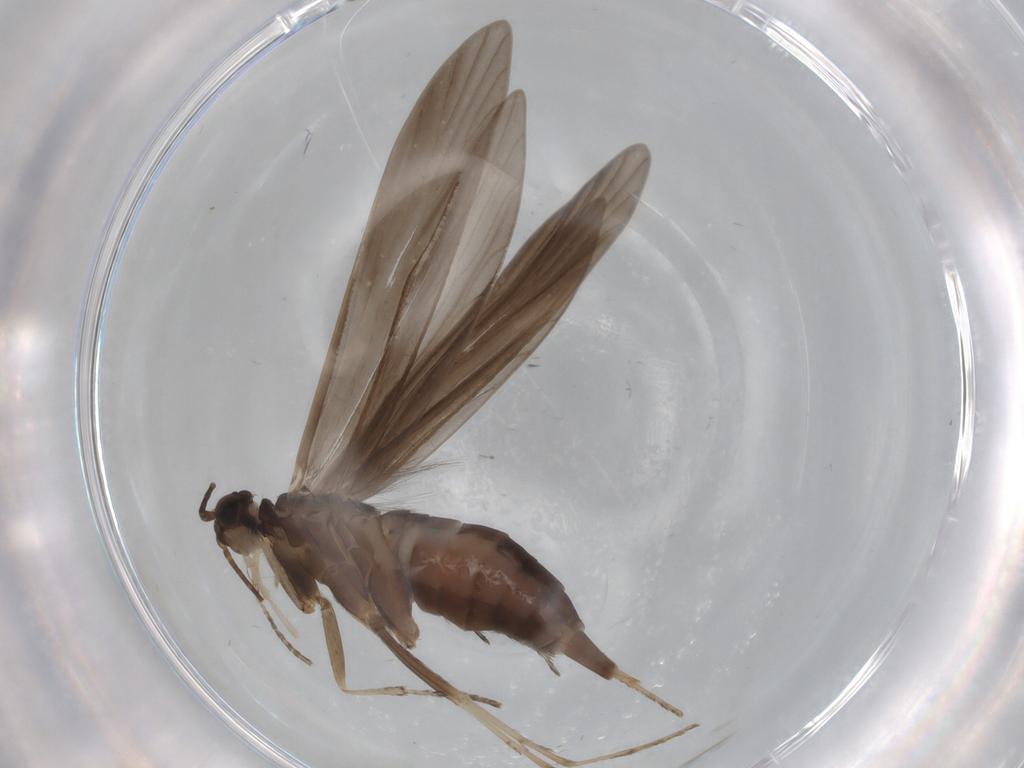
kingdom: Animalia
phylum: Arthropoda
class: Insecta
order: Trichoptera
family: Xiphocentronidae
